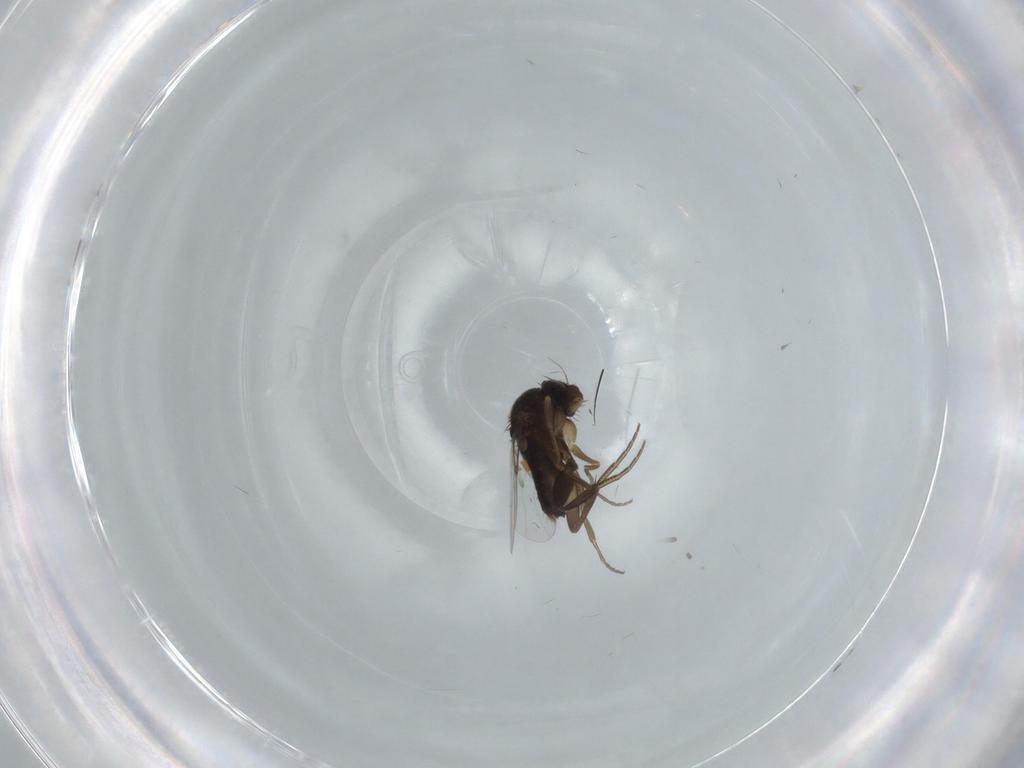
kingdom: Animalia
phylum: Arthropoda
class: Insecta
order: Diptera
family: Phoridae
